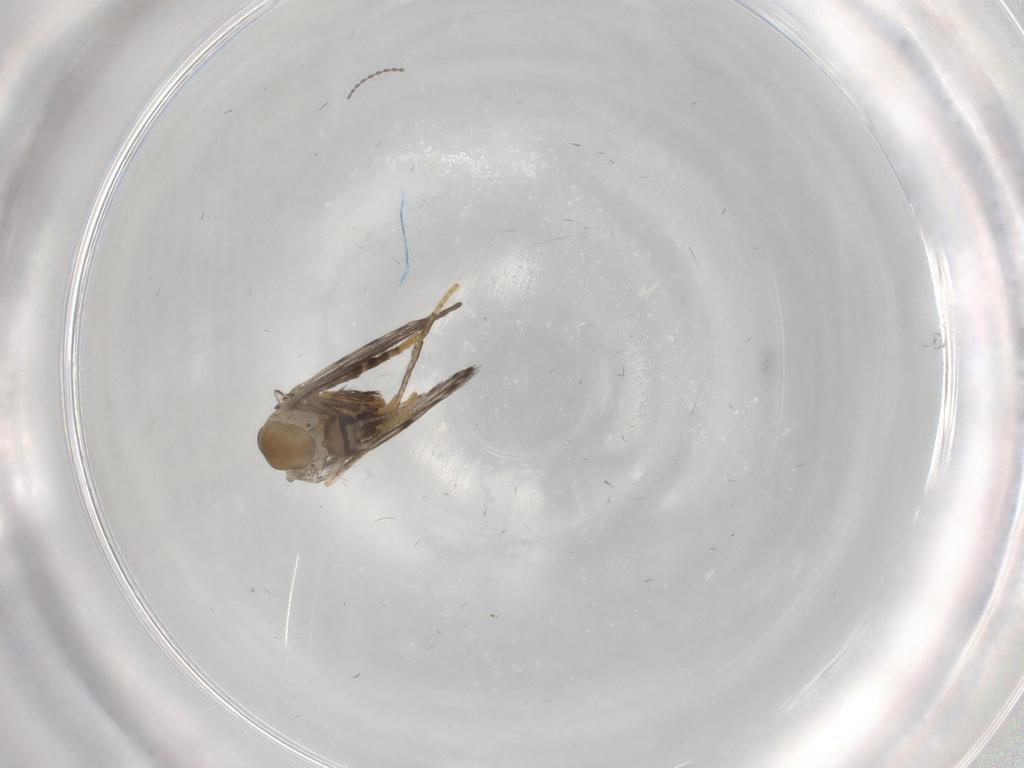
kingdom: Animalia
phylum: Arthropoda
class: Insecta
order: Diptera
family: Psychodidae
